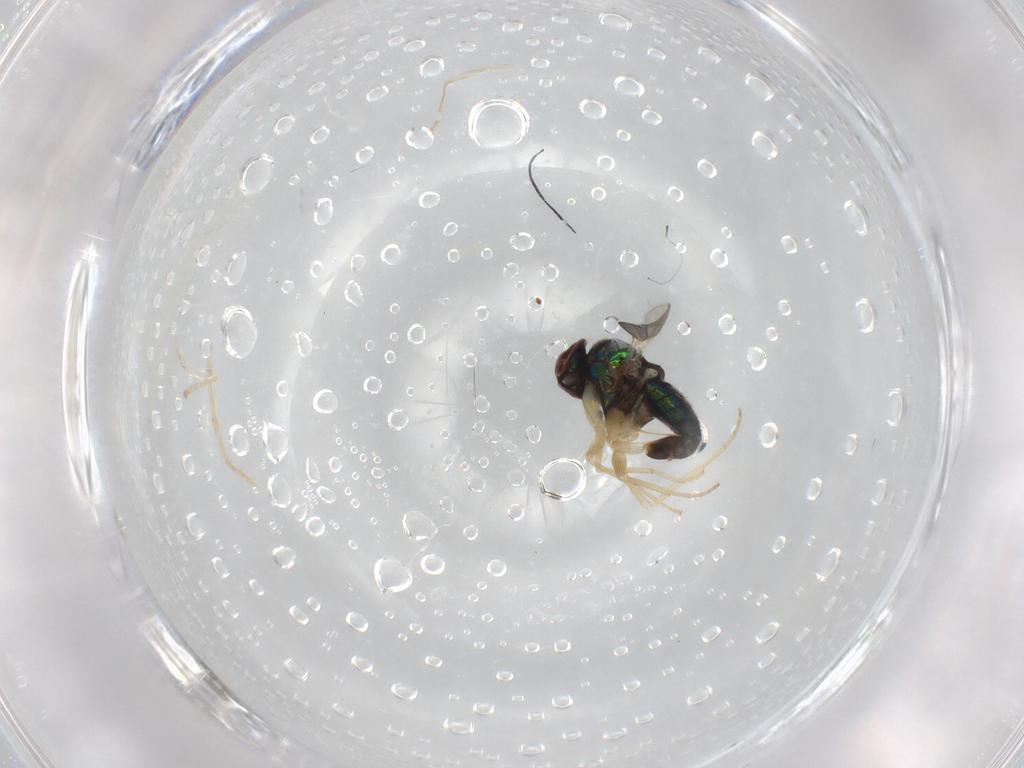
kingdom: Animalia
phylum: Arthropoda
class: Insecta
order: Diptera
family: Dolichopodidae
